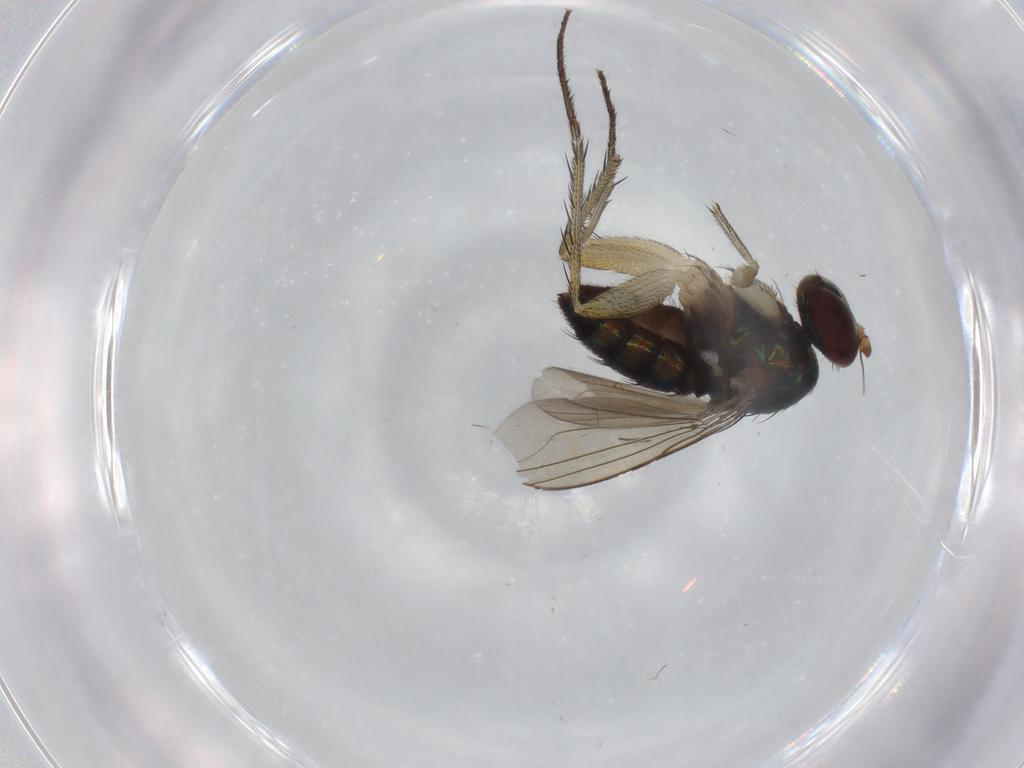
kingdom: Animalia
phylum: Arthropoda
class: Insecta
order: Diptera
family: Dolichopodidae
